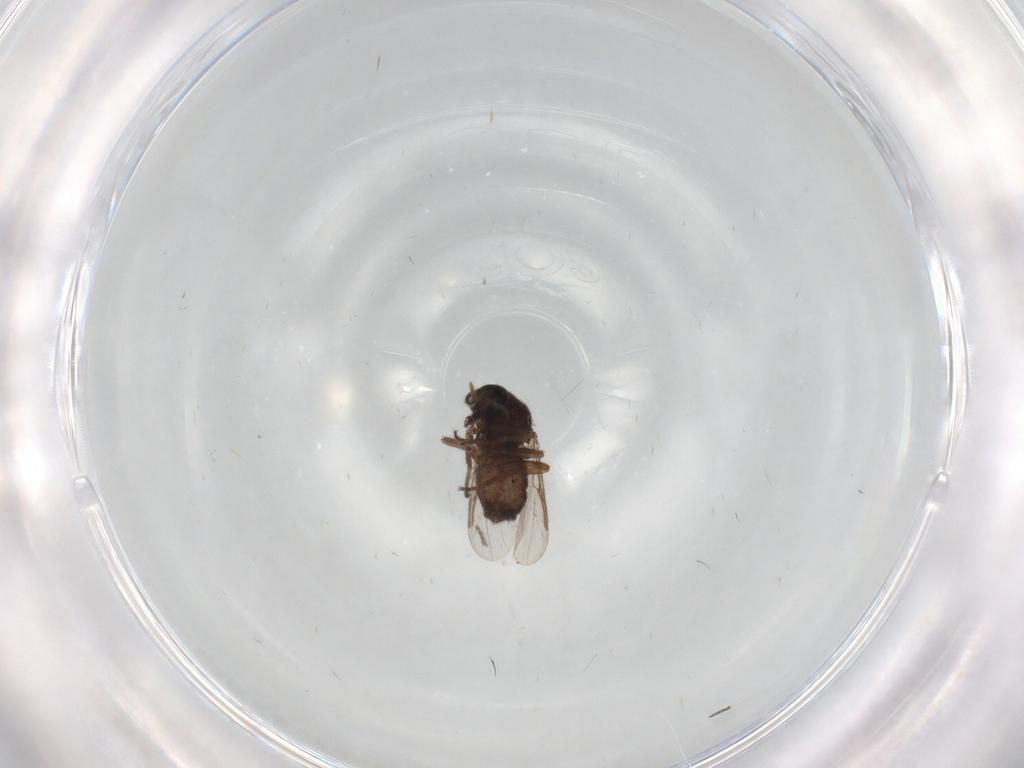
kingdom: Animalia
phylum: Arthropoda
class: Insecta
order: Diptera
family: Ceratopogonidae
